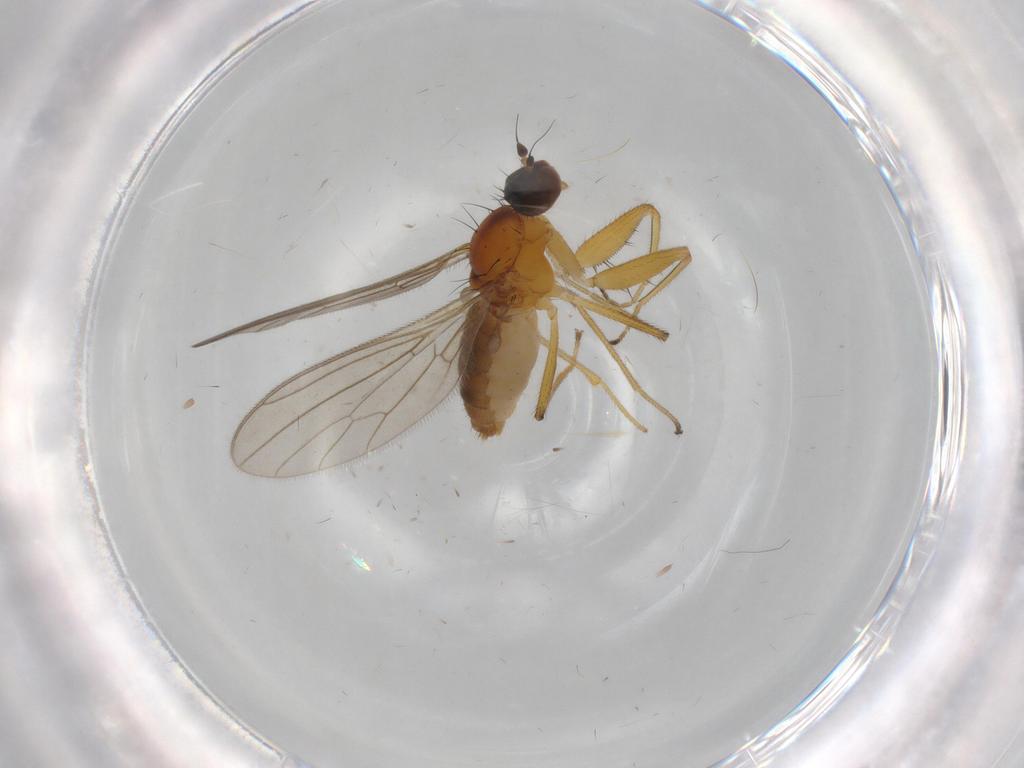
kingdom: Animalia
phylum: Arthropoda
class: Insecta
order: Diptera
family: Empididae
